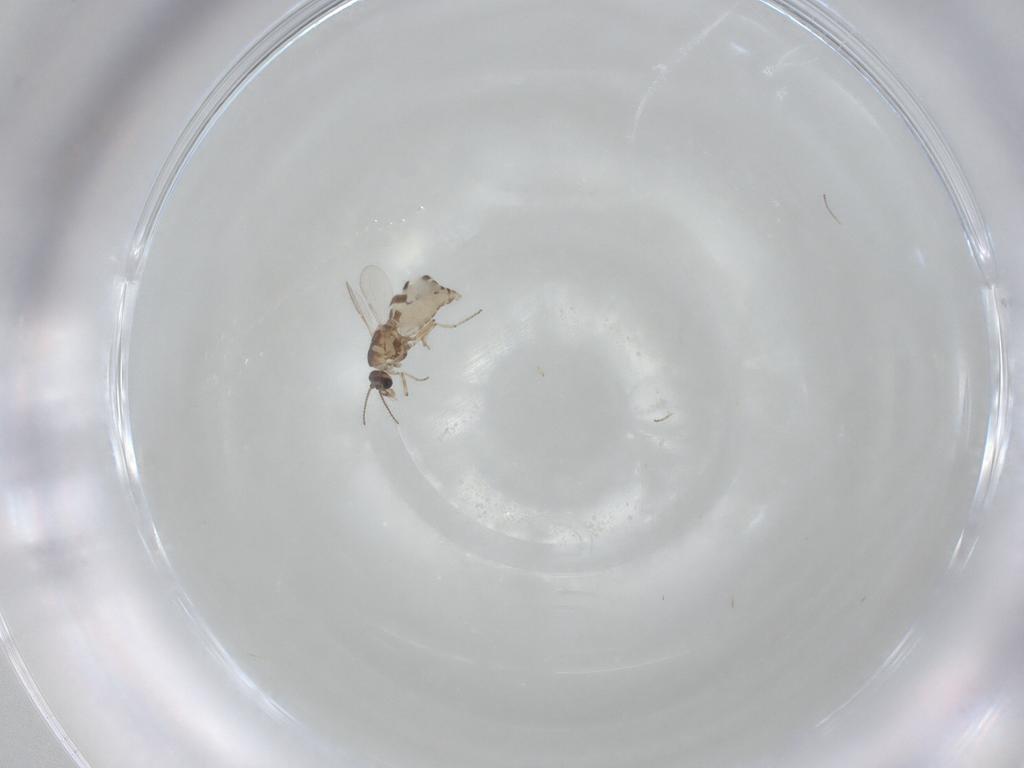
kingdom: Animalia
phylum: Arthropoda
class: Insecta
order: Diptera
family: Ceratopogonidae
